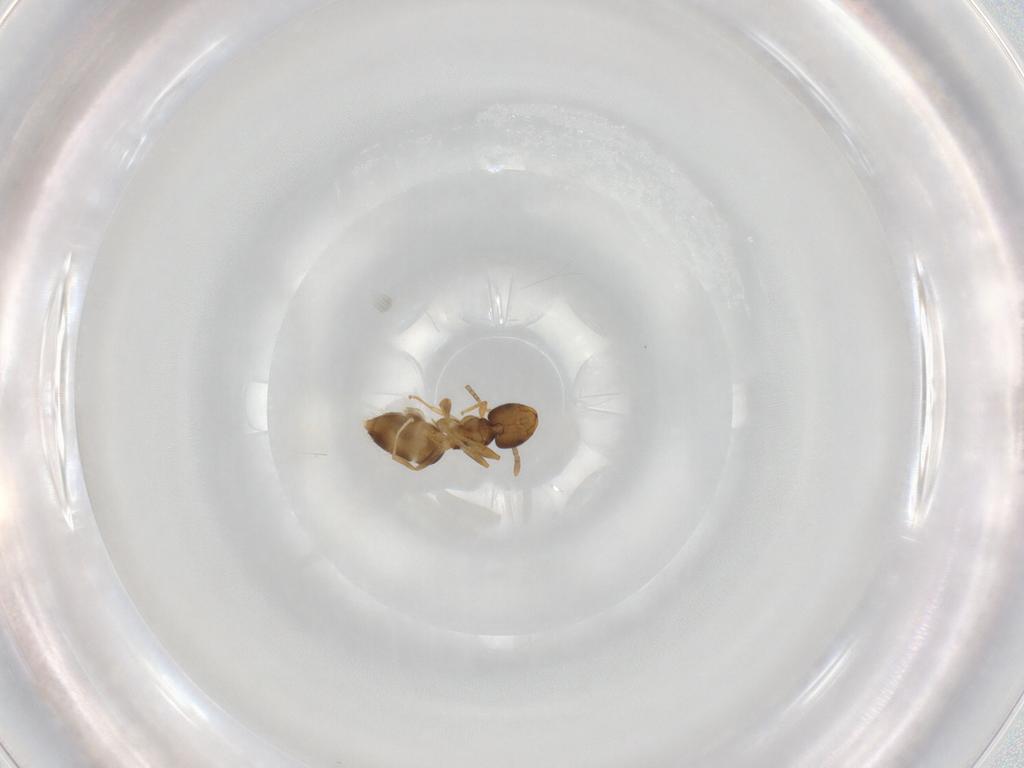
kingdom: Animalia
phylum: Arthropoda
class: Insecta
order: Hymenoptera
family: Formicidae
